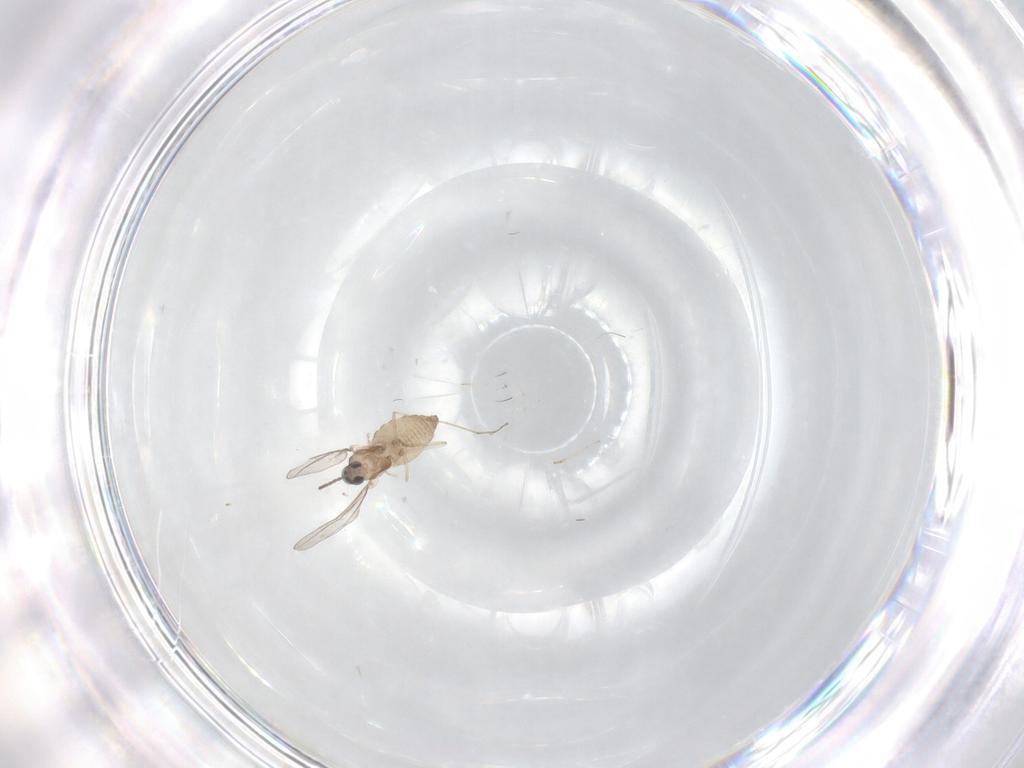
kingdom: Animalia
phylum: Arthropoda
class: Insecta
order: Diptera
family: Cecidomyiidae
